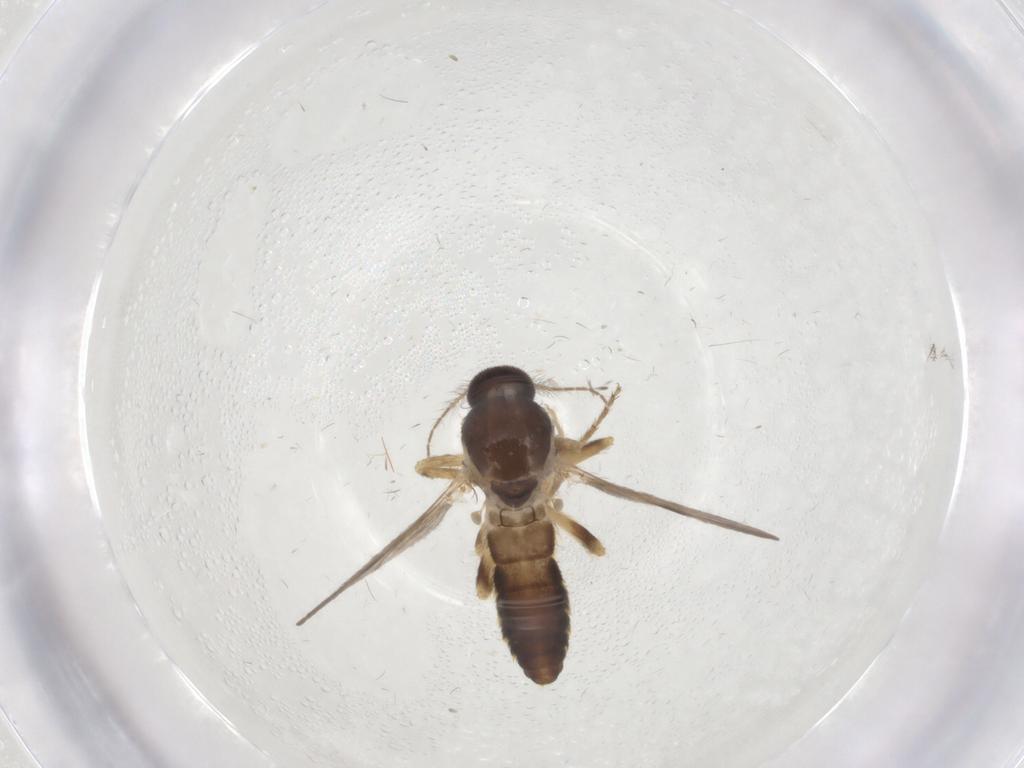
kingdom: Animalia
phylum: Arthropoda
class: Insecta
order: Diptera
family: Ceratopogonidae
